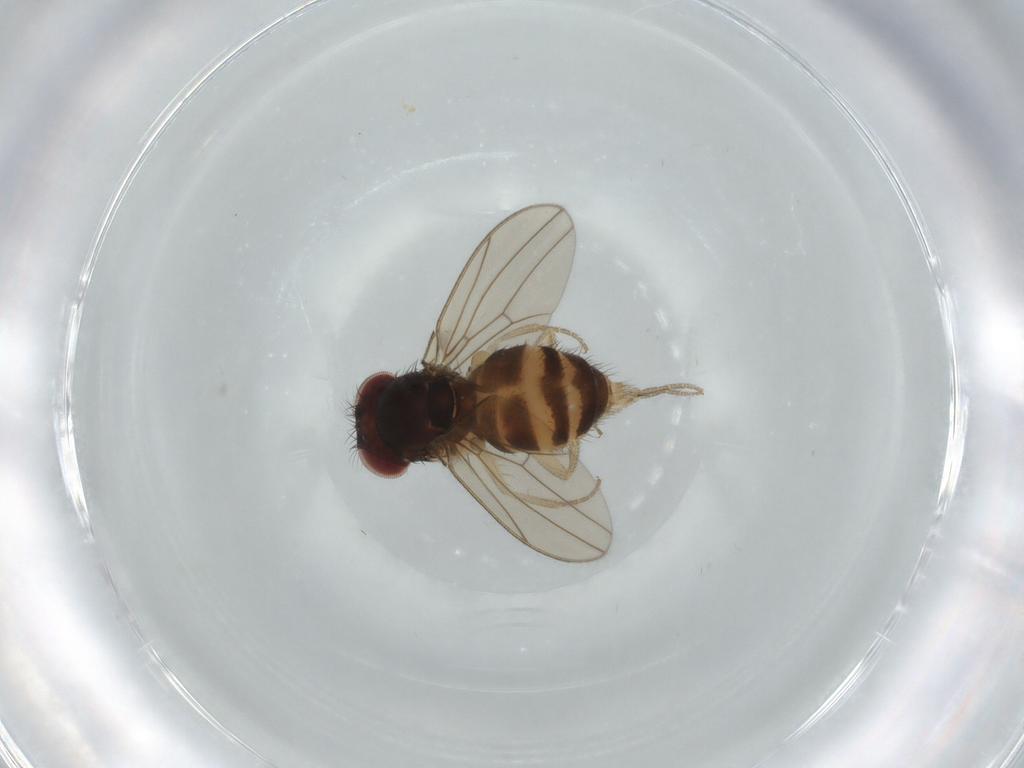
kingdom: Animalia
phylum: Arthropoda
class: Insecta
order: Diptera
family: Drosophilidae
